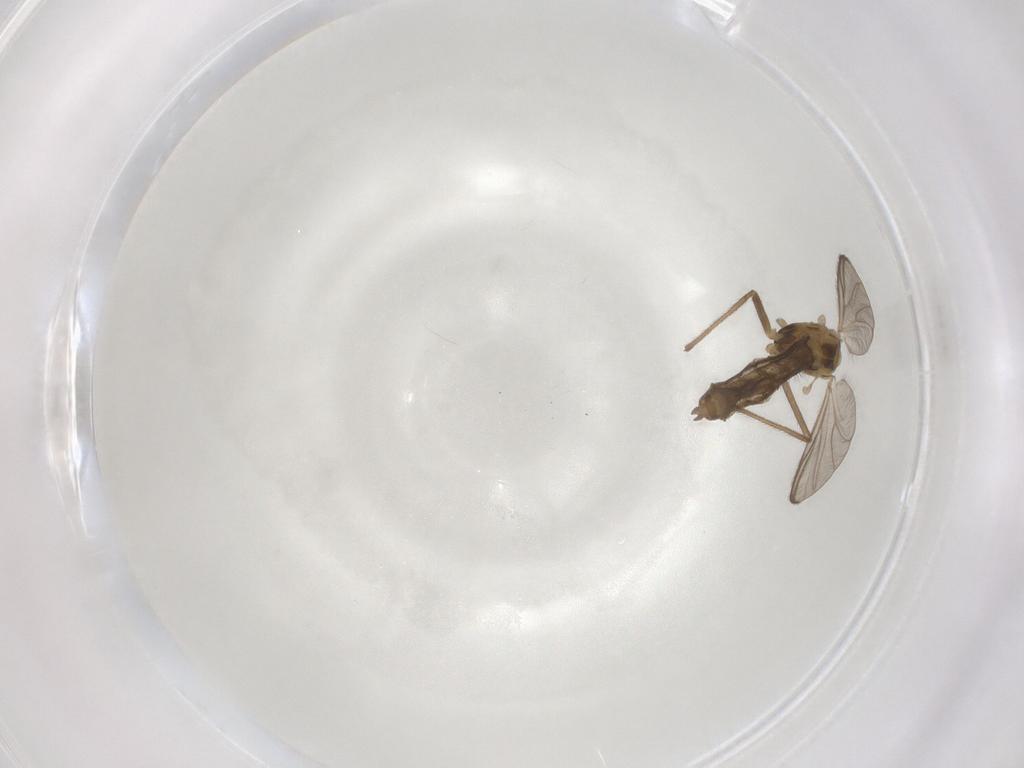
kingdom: Animalia
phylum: Arthropoda
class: Insecta
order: Diptera
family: Chironomidae
